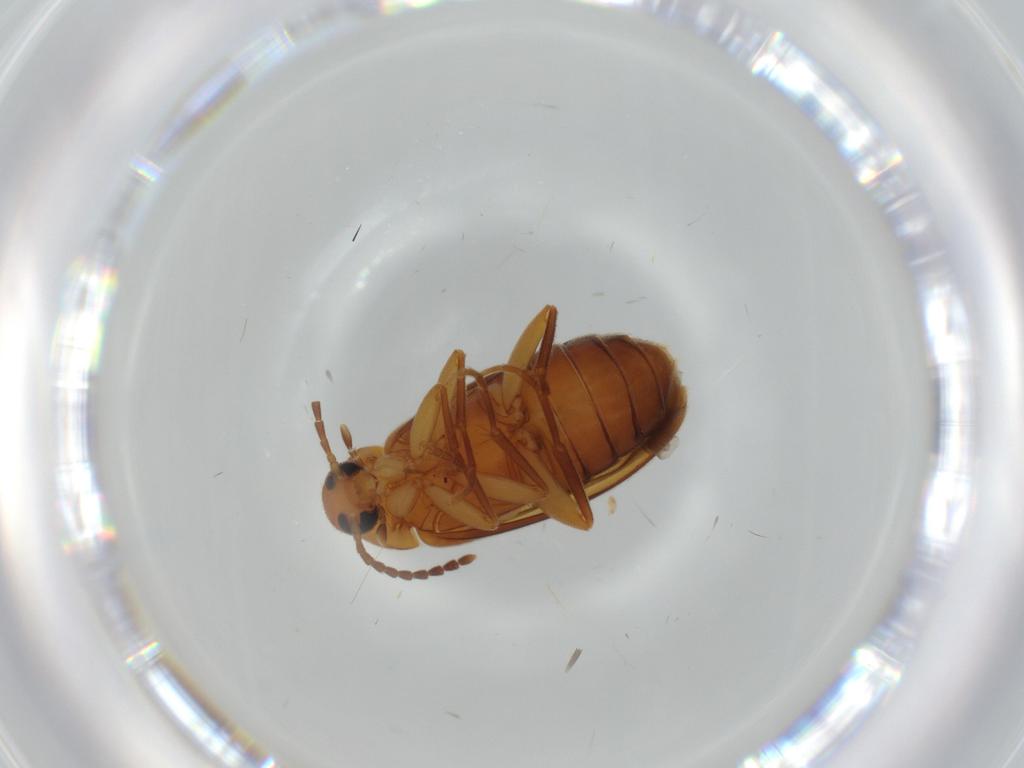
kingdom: Animalia
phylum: Arthropoda
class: Insecta
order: Coleoptera
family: Scraptiidae
